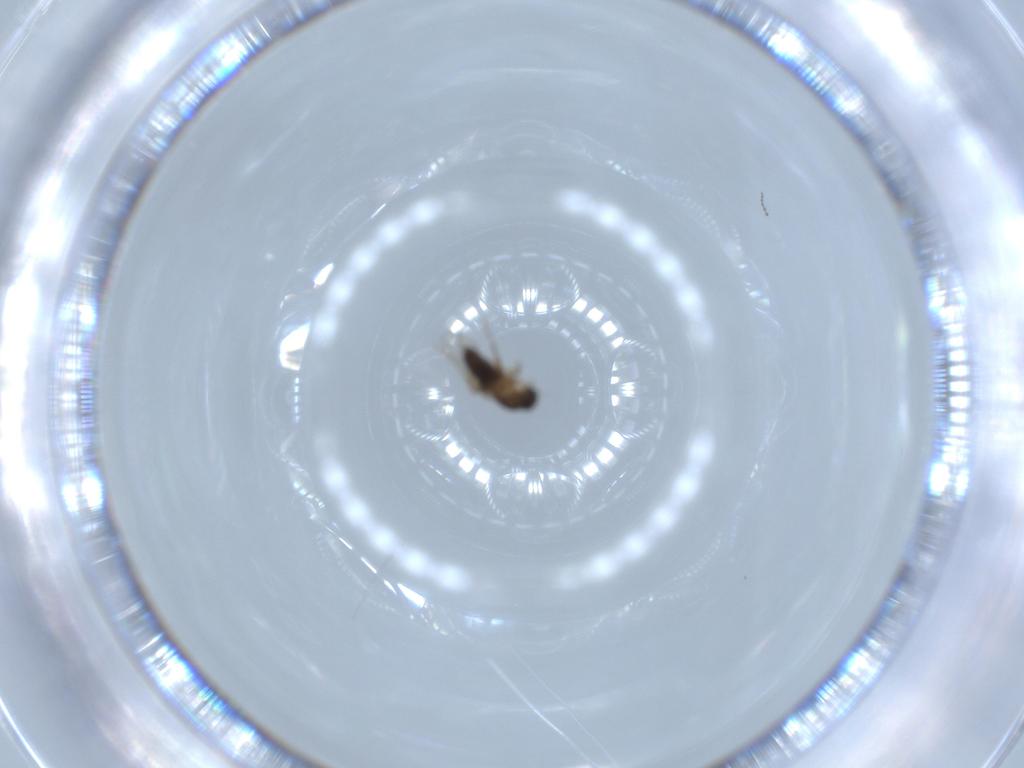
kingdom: Animalia
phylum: Arthropoda
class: Insecta
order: Diptera
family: Phoridae
